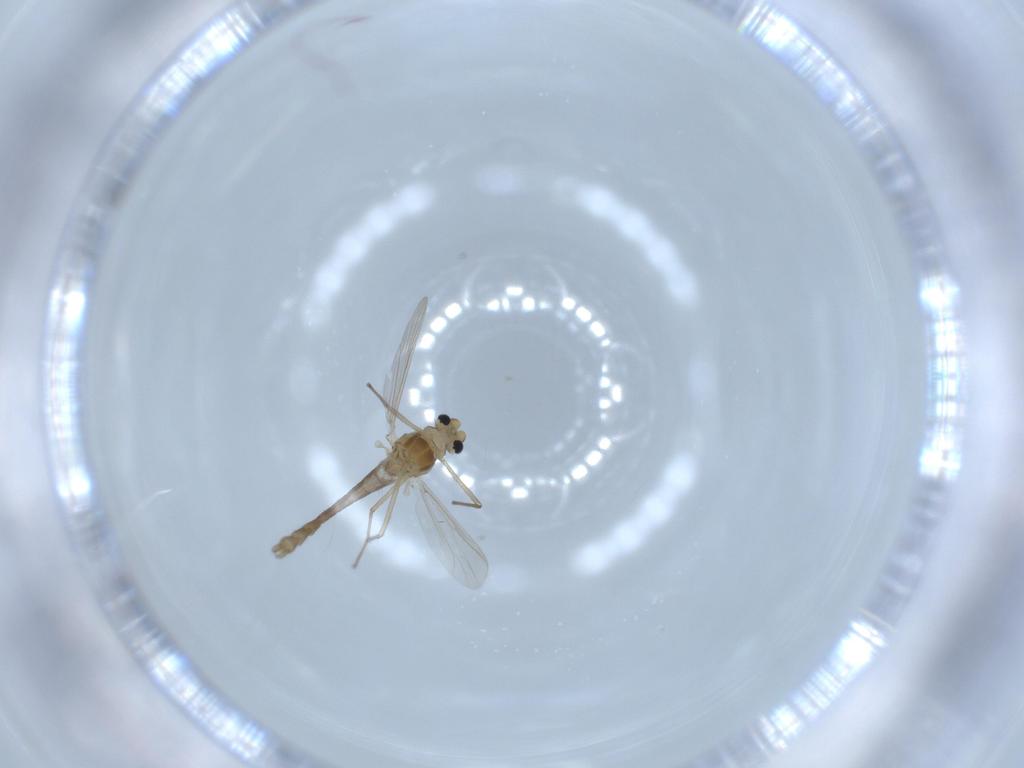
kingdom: Animalia
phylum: Arthropoda
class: Insecta
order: Diptera
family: Chironomidae
